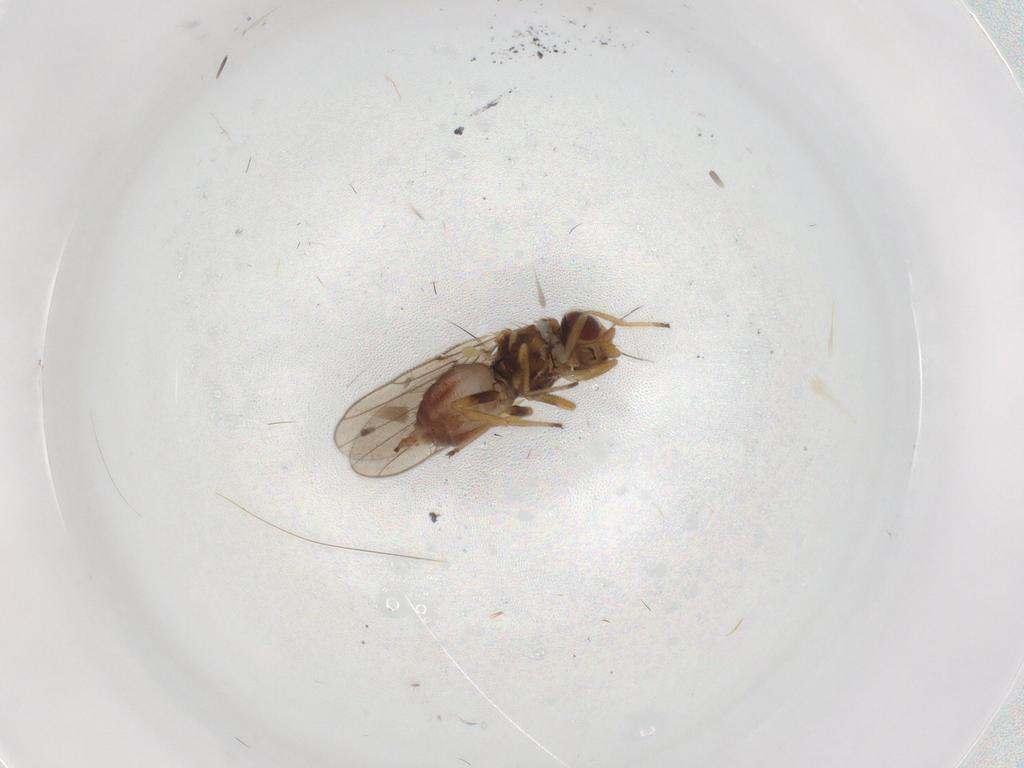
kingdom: Animalia
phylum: Arthropoda
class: Insecta
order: Diptera
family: Chloropidae
